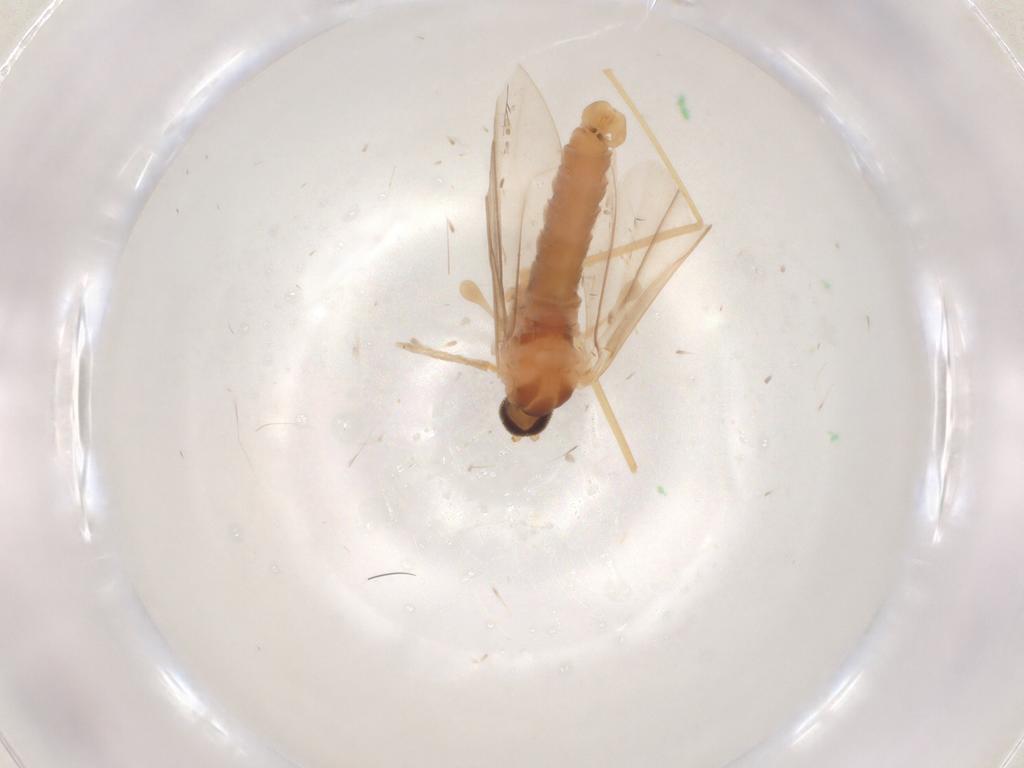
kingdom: Animalia
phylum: Arthropoda
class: Insecta
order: Diptera
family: Cecidomyiidae
